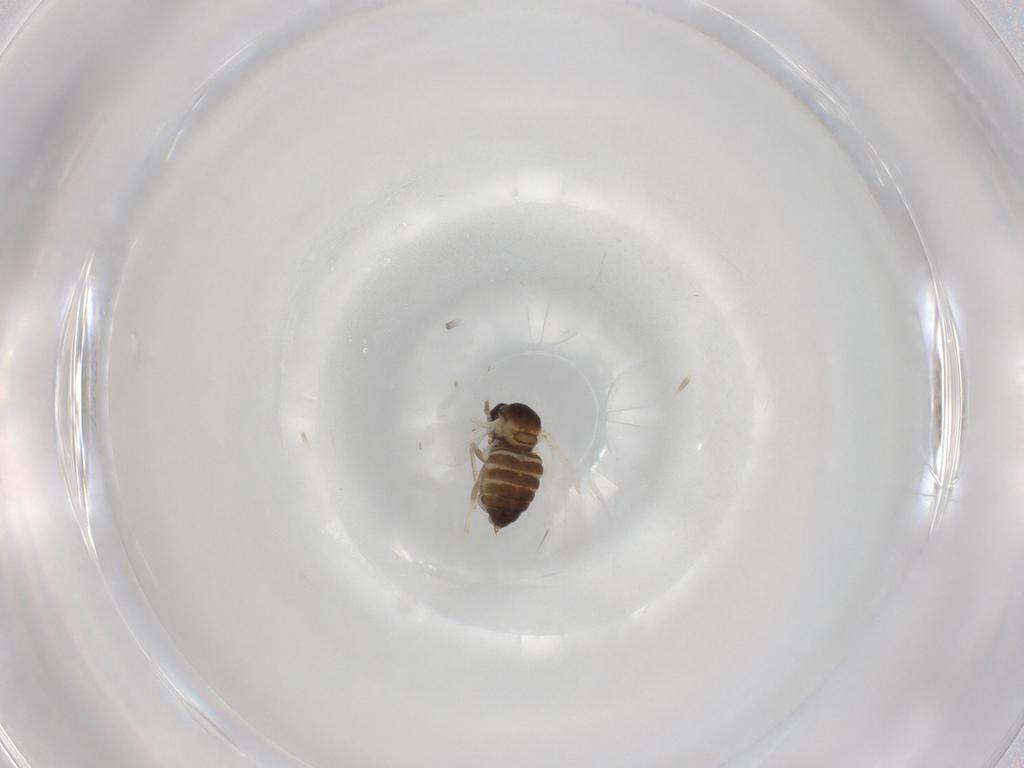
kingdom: Animalia
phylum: Arthropoda
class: Insecta
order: Diptera
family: Cecidomyiidae
